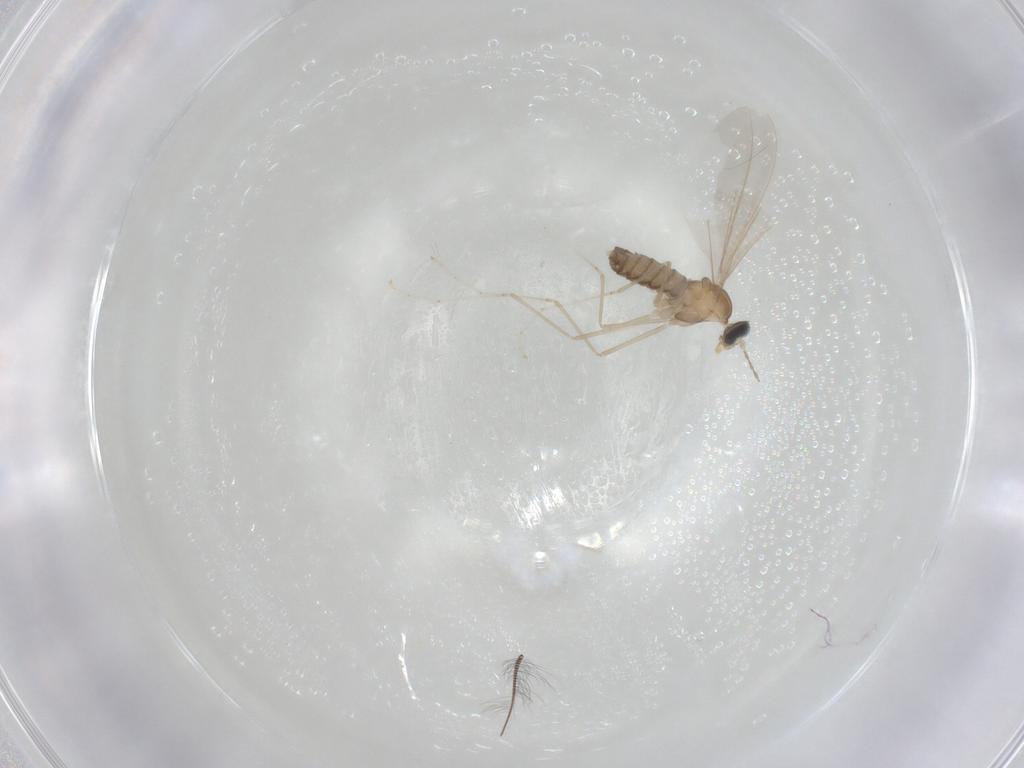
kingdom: Animalia
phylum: Arthropoda
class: Insecta
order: Diptera
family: Cecidomyiidae
